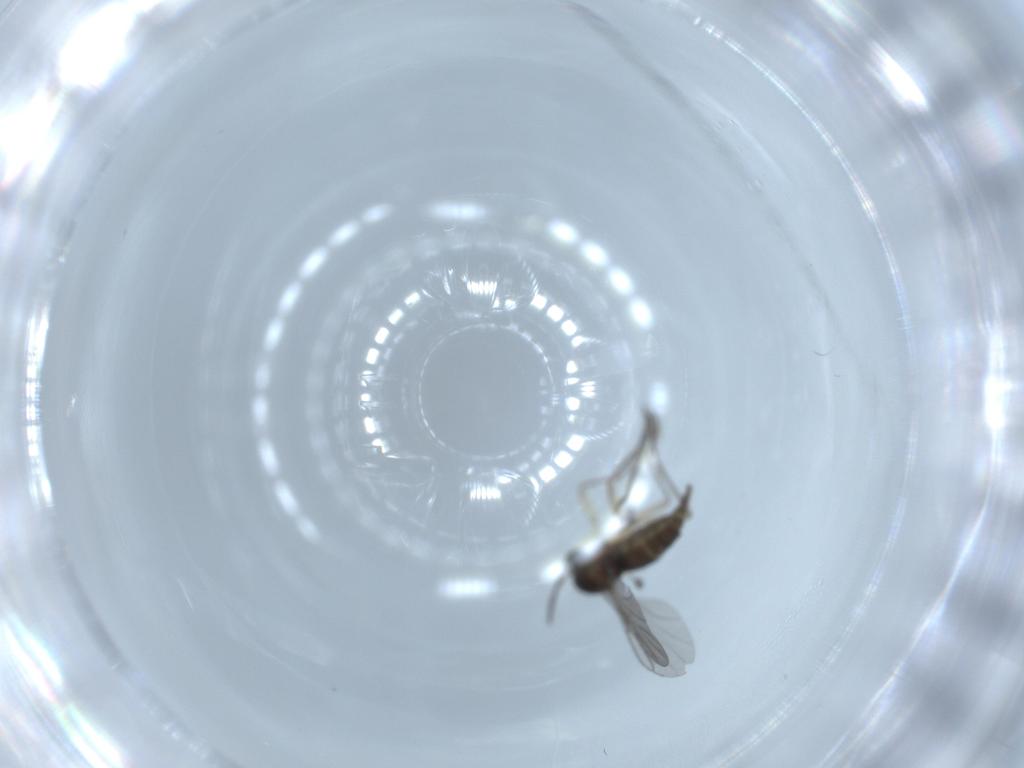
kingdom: Animalia
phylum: Arthropoda
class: Insecta
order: Diptera
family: Sciaridae
